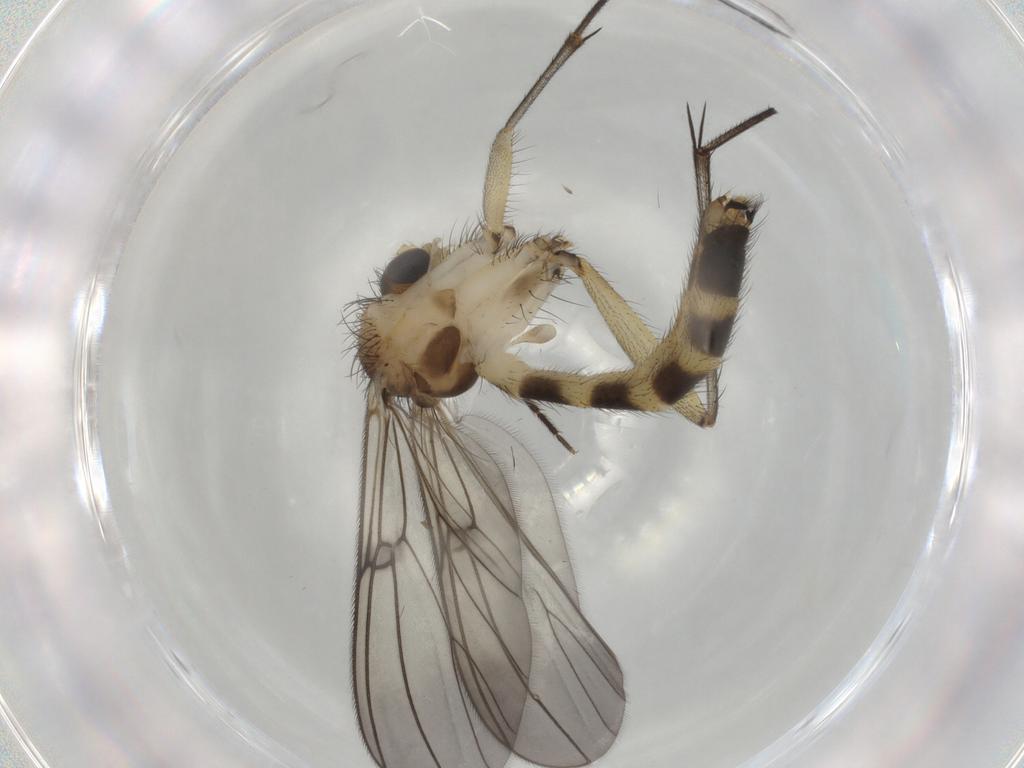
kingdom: Animalia
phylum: Arthropoda
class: Insecta
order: Diptera
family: Mycetophilidae
